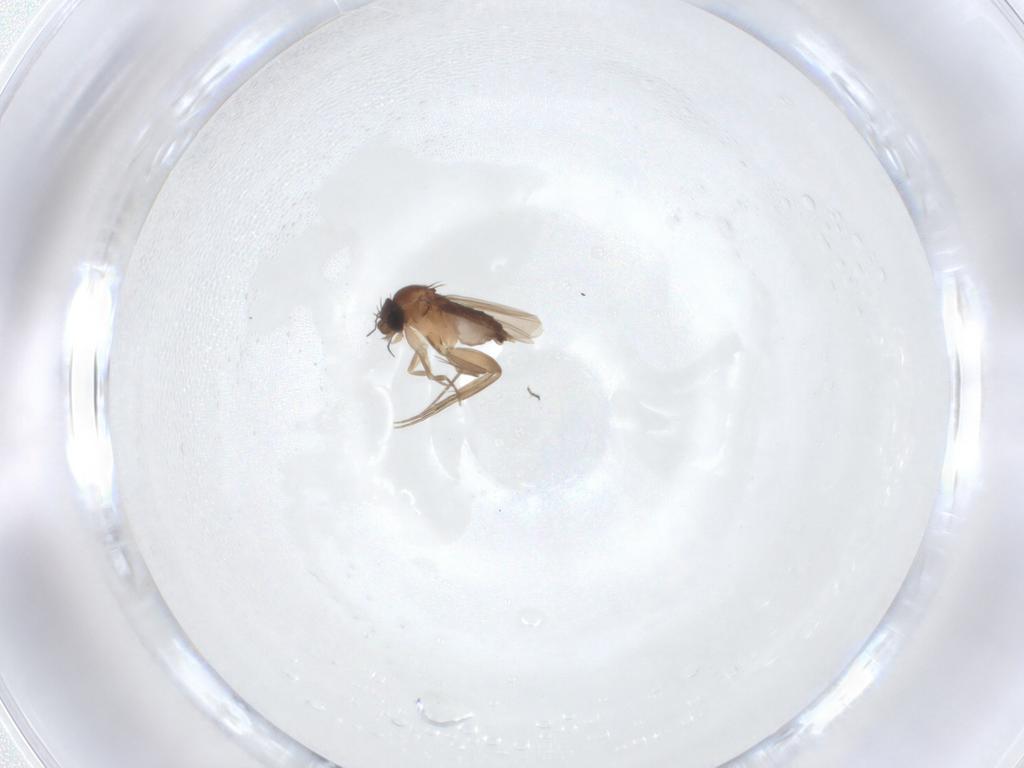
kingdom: Animalia
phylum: Arthropoda
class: Insecta
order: Diptera
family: Phoridae
